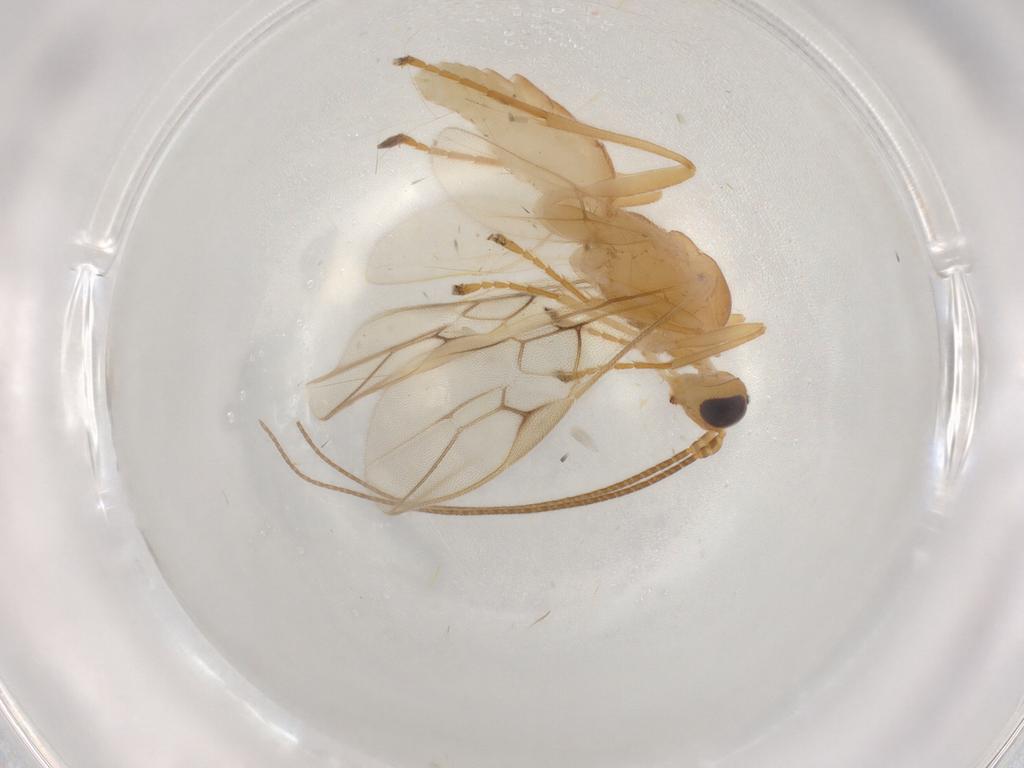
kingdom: Animalia
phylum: Arthropoda
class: Insecta
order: Hymenoptera
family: Braconidae
